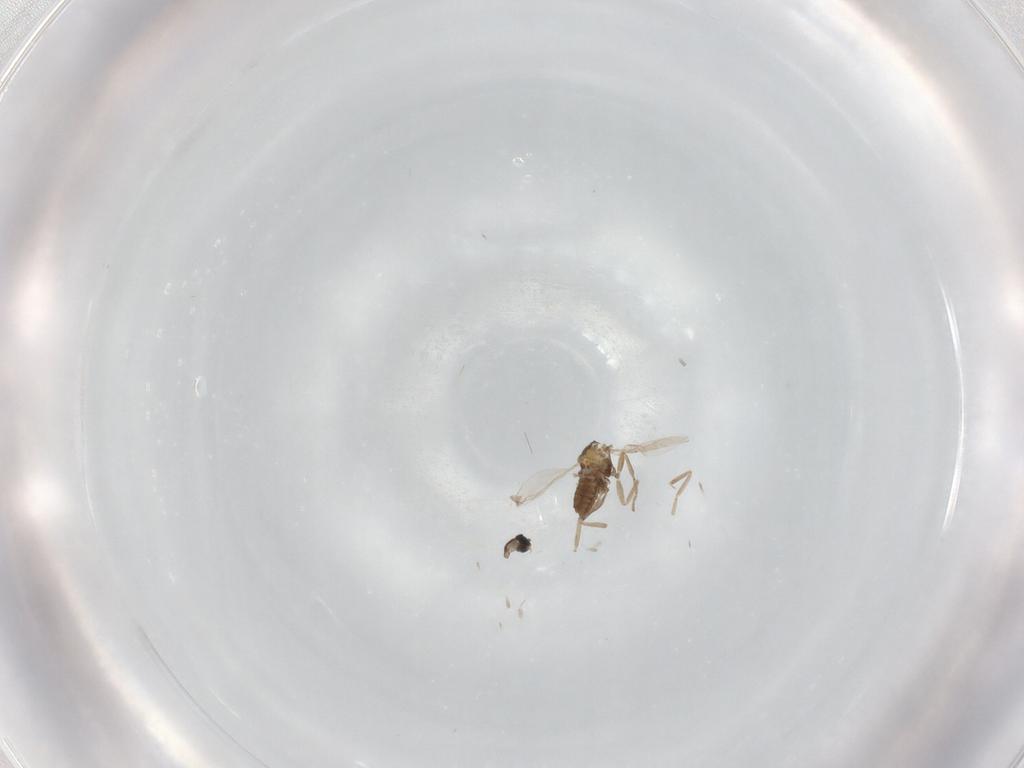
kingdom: Animalia
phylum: Arthropoda
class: Insecta
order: Diptera
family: Cecidomyiidae
